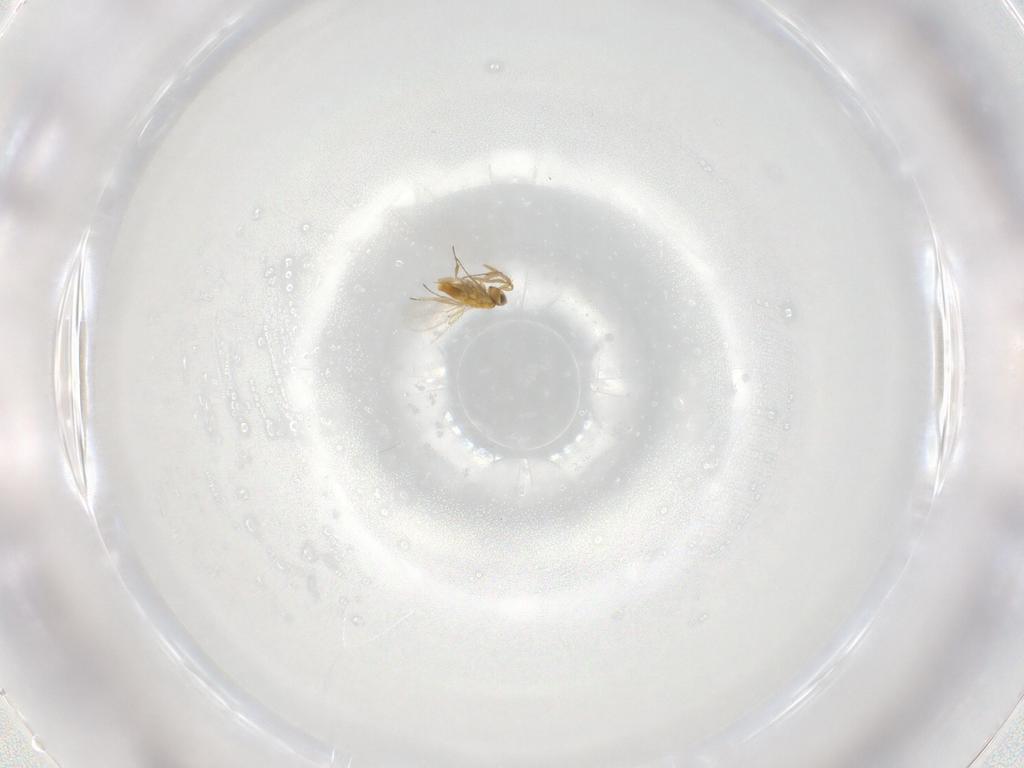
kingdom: Animalia
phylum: Arthropoda
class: Insecta
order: Hymenoptera
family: Aphelinidae
